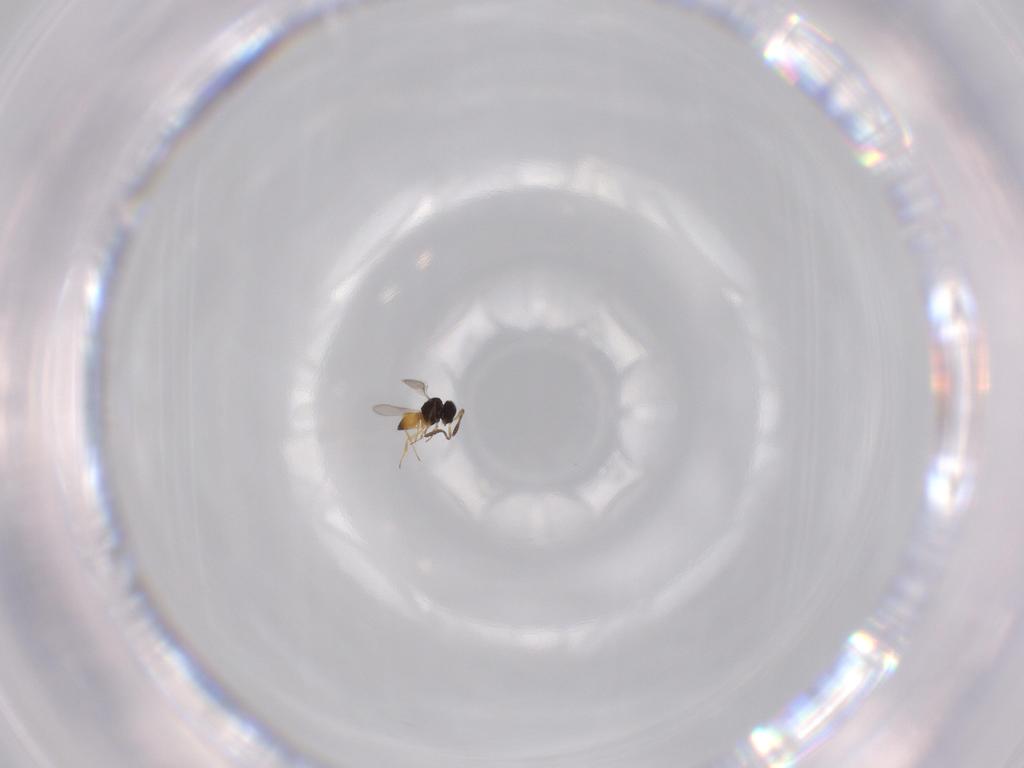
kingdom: Animalia
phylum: Arthropoda
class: Insecta
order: Hymenoptera
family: Scelionidae
